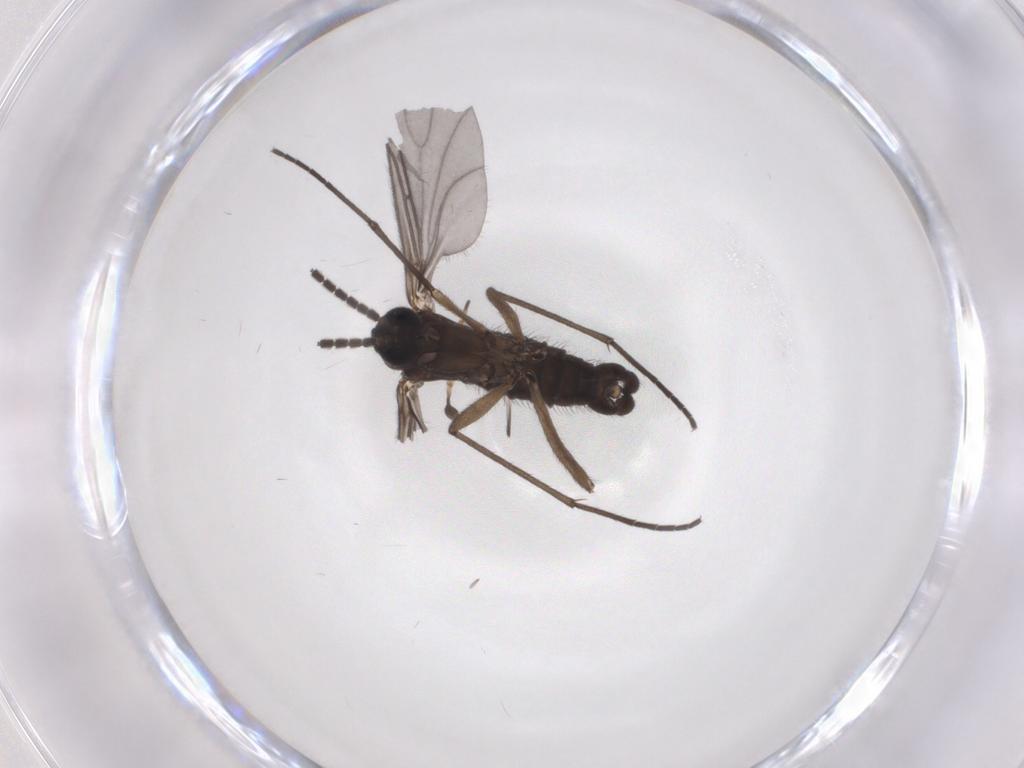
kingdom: Animalia
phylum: Arthropoda
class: Insecta
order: Diptera
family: Sciaridae
